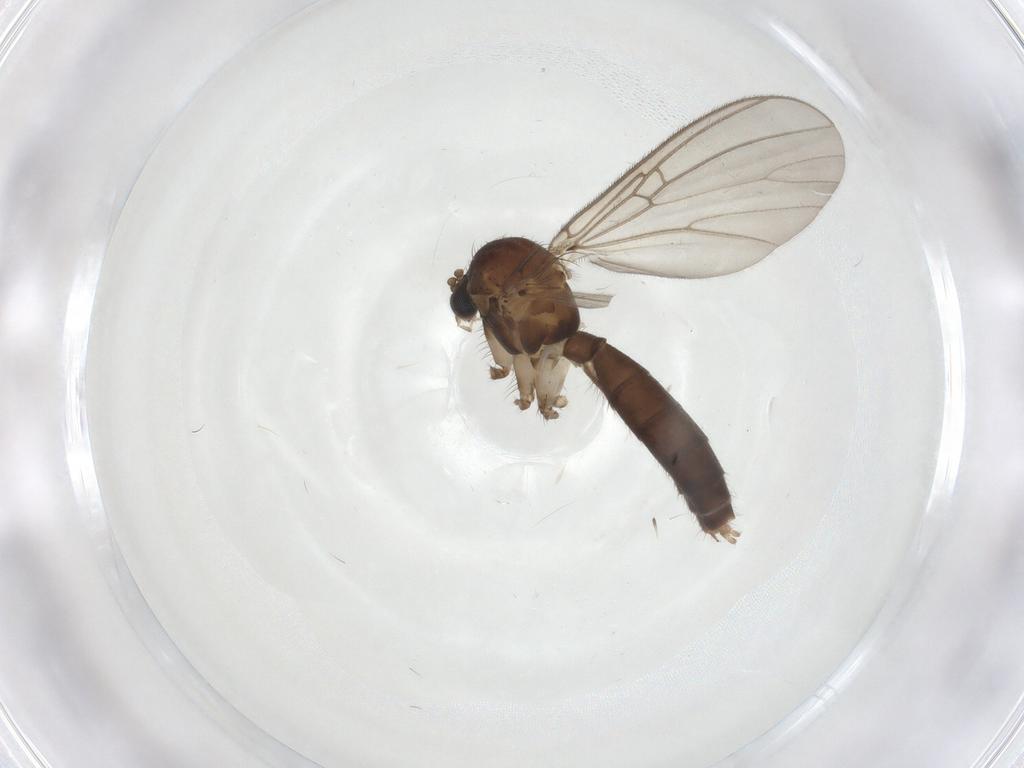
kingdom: Animalia
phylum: Arthropoda
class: Insecta
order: Diptera
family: Mycetophilidae
